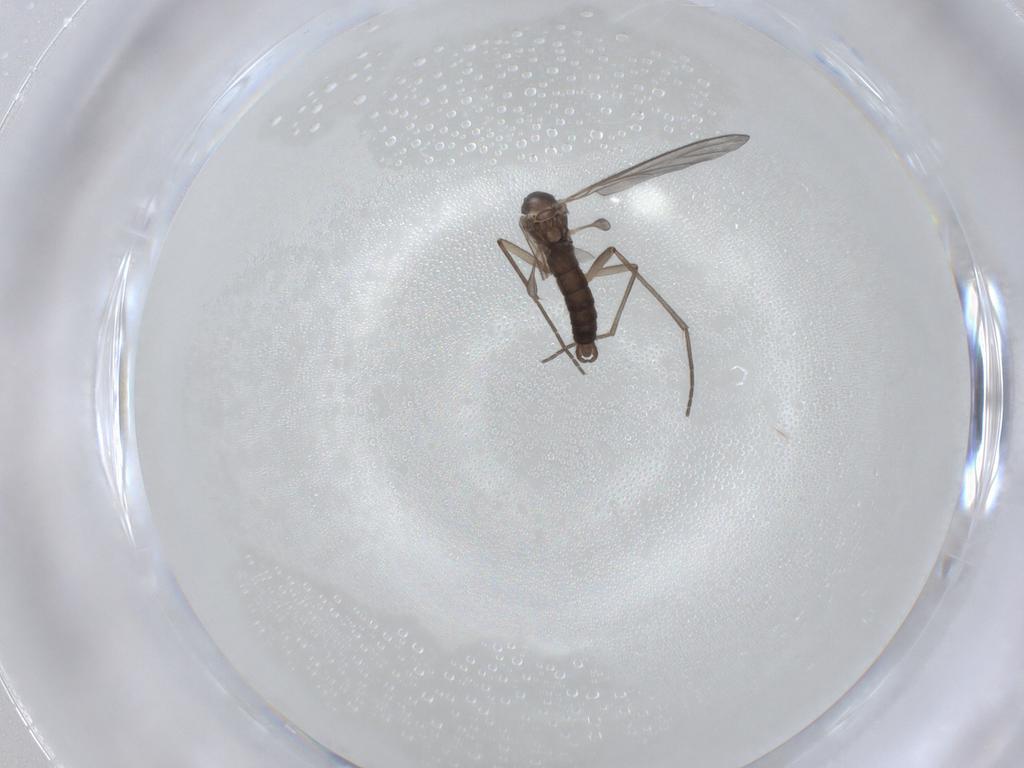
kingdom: Animalia
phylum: Arthropoda
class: Insecta
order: Diptera
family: Sciaridae
